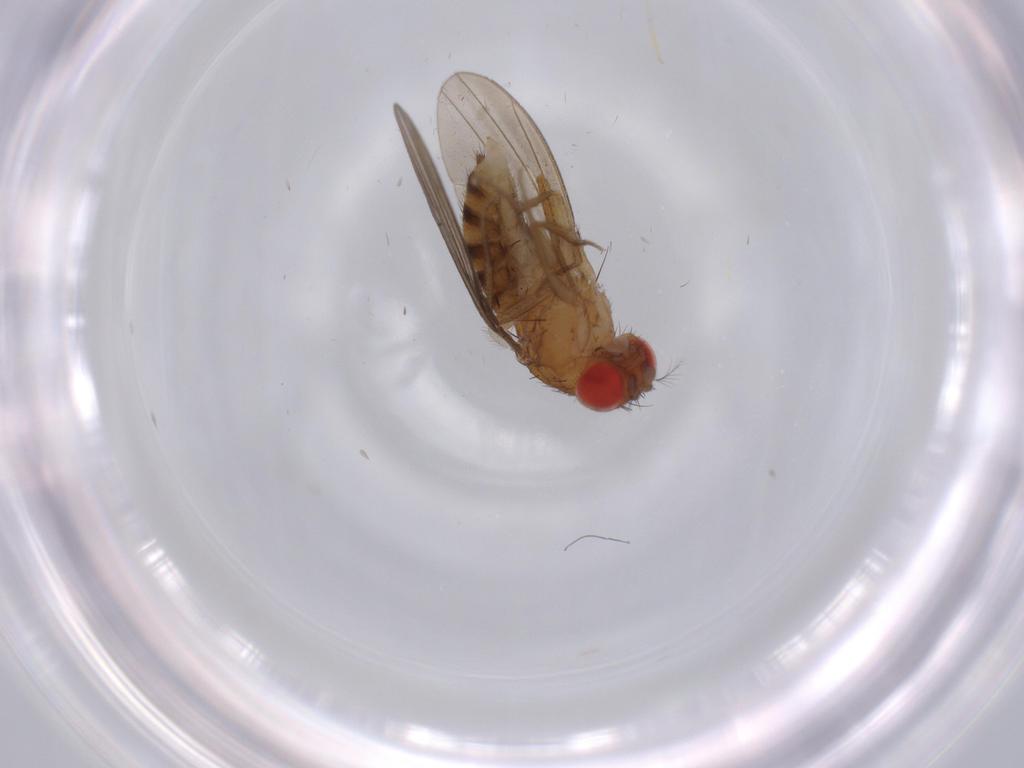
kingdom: Animalia
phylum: Arthropoda
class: Insecta
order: Diptera
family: Drosophilidae
